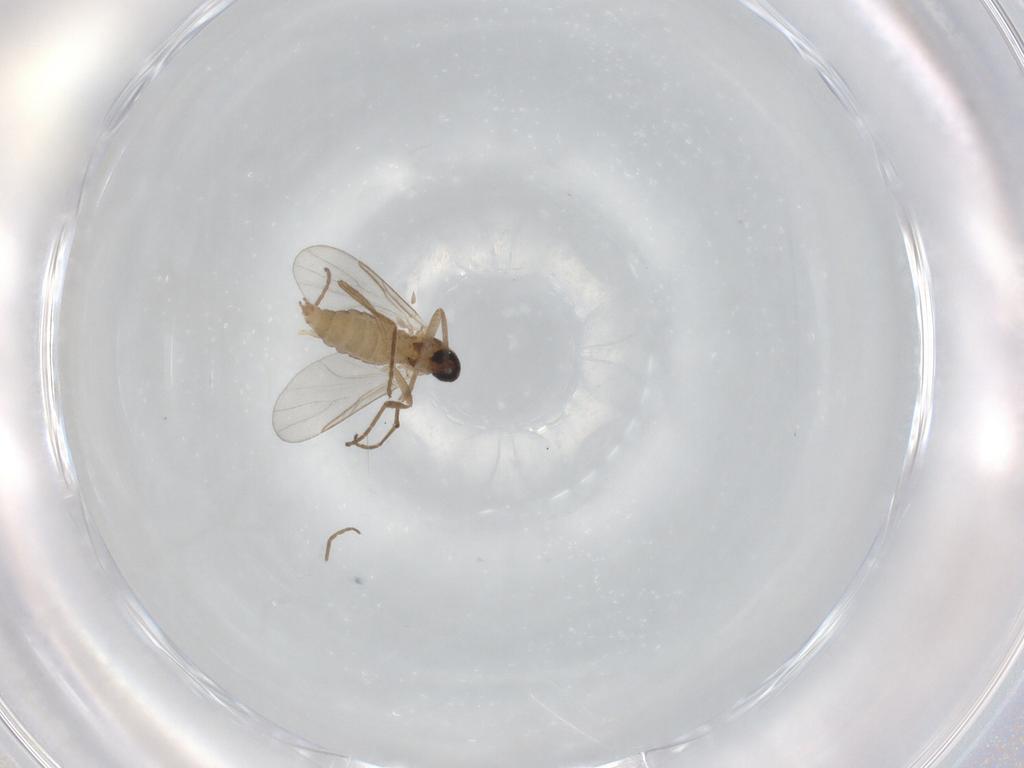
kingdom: Animalia
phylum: Arthropoda
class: Insecta
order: Diptera
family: Cecidomyiidae
